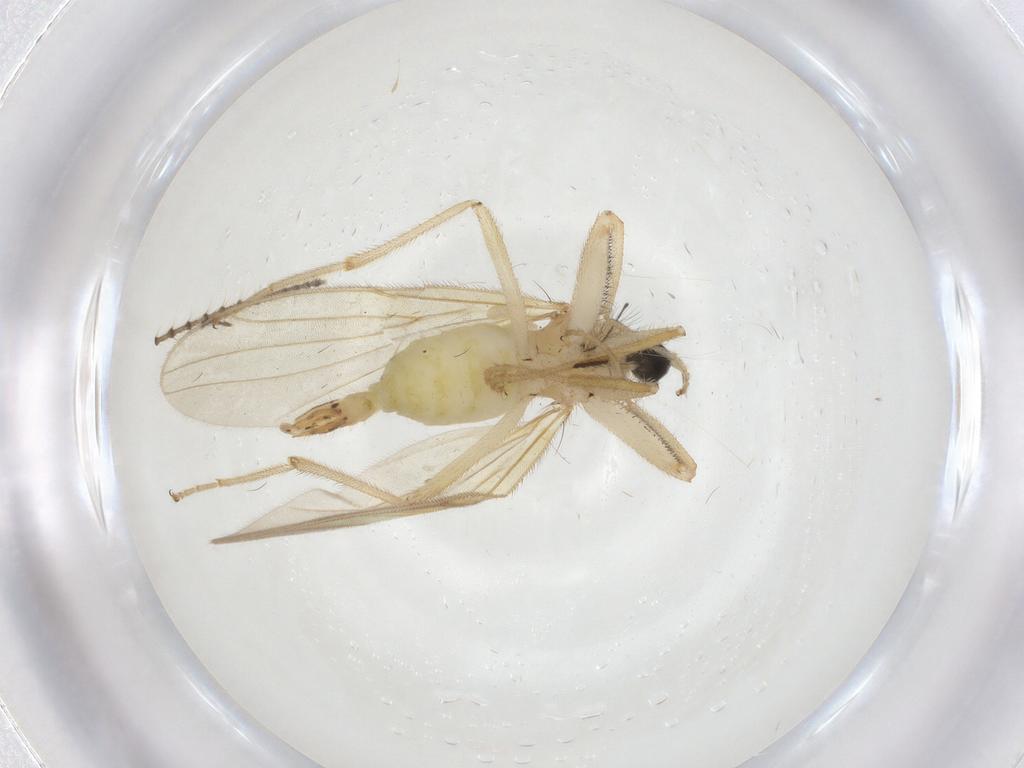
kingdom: Animalia
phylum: Arthropoda
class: Insecta
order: Diptera
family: Hybotidae
